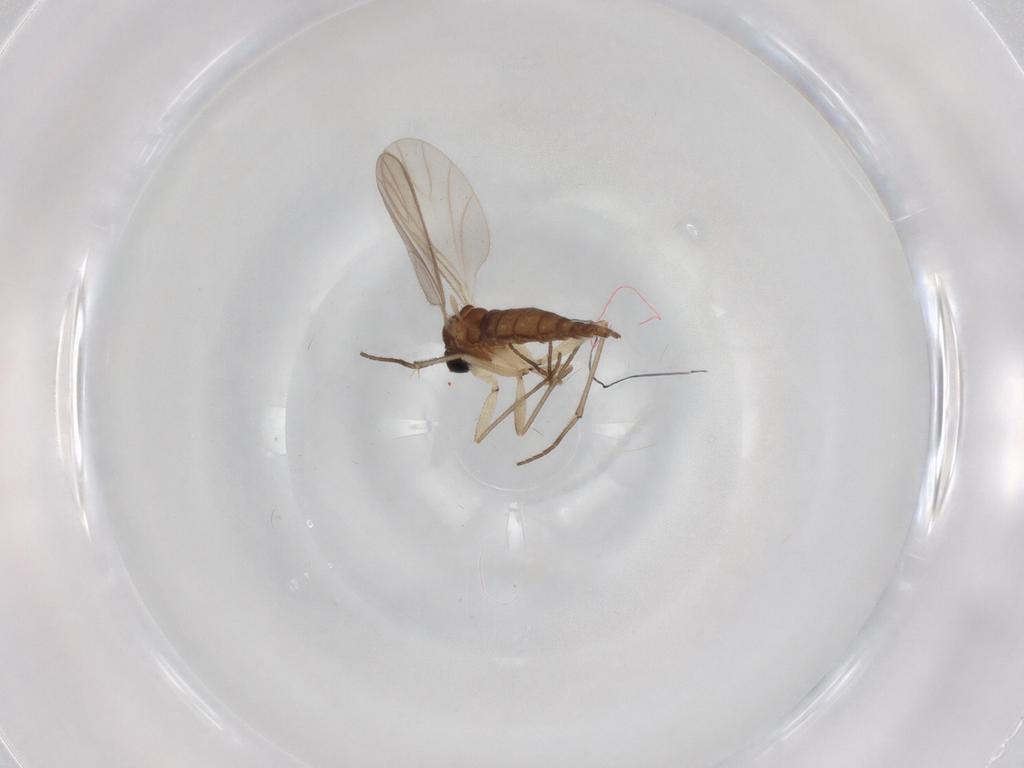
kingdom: Animalia
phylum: Arthropoda
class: Insecta
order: Diptera
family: Sciaridae
